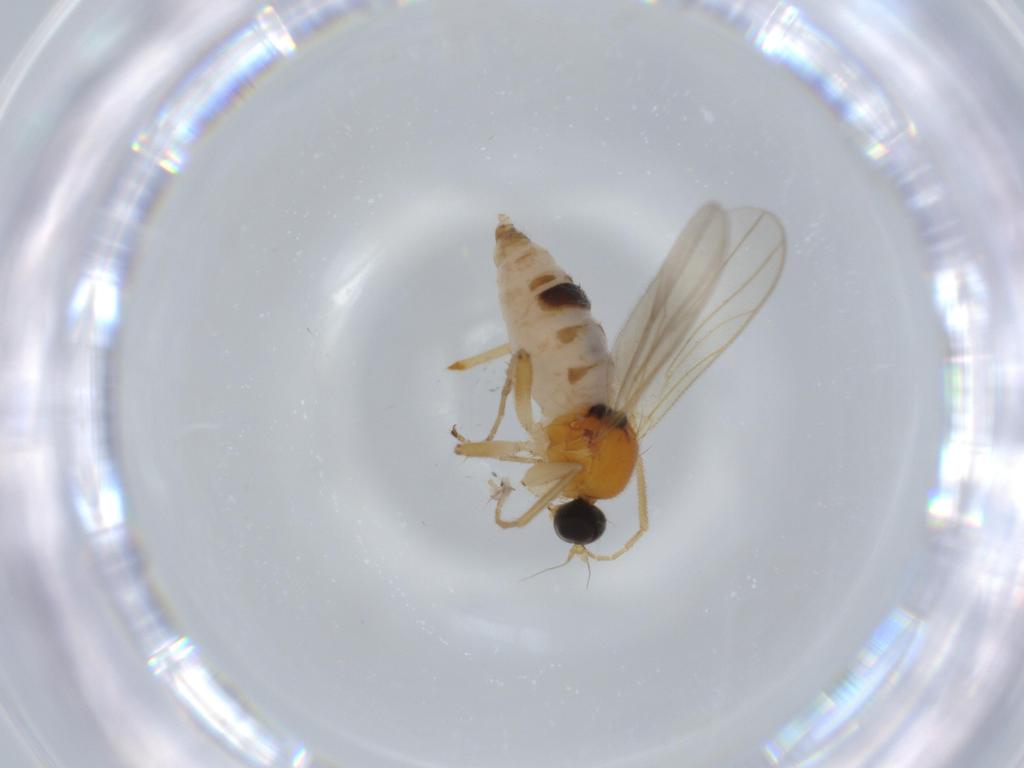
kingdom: Animalia
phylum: Arthropoda
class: Insecta
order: Diptera
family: Hybotidae
